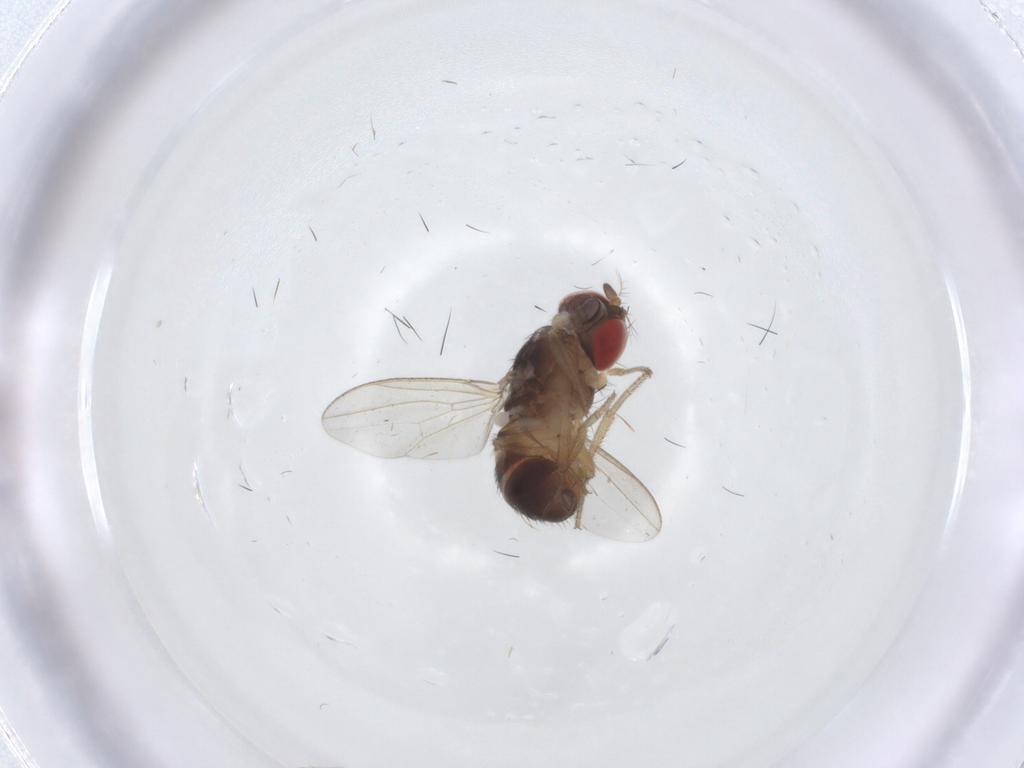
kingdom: Animalia
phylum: Arthropoda
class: Insecta
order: Diptera
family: Drosophilidae
